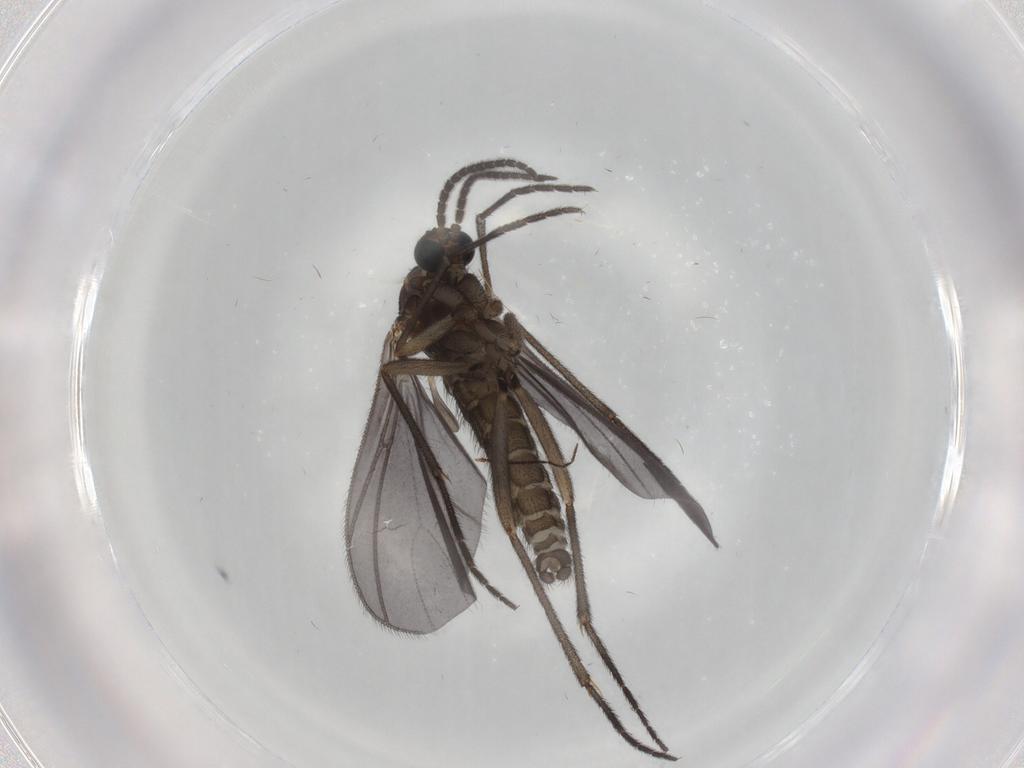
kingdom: Animalia
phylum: Arthropoda
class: Insecta
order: Diptera
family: Sciaridae
